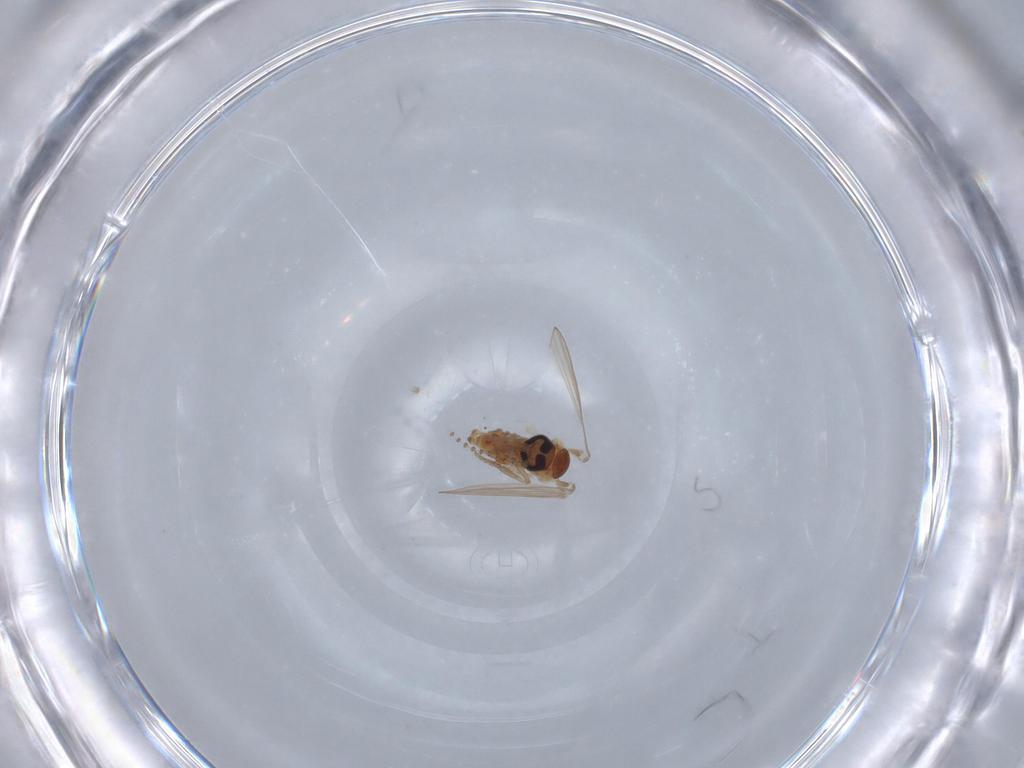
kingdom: Animalia
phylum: Arthropoda
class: Insecta
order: Diptera
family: Psychodidae
